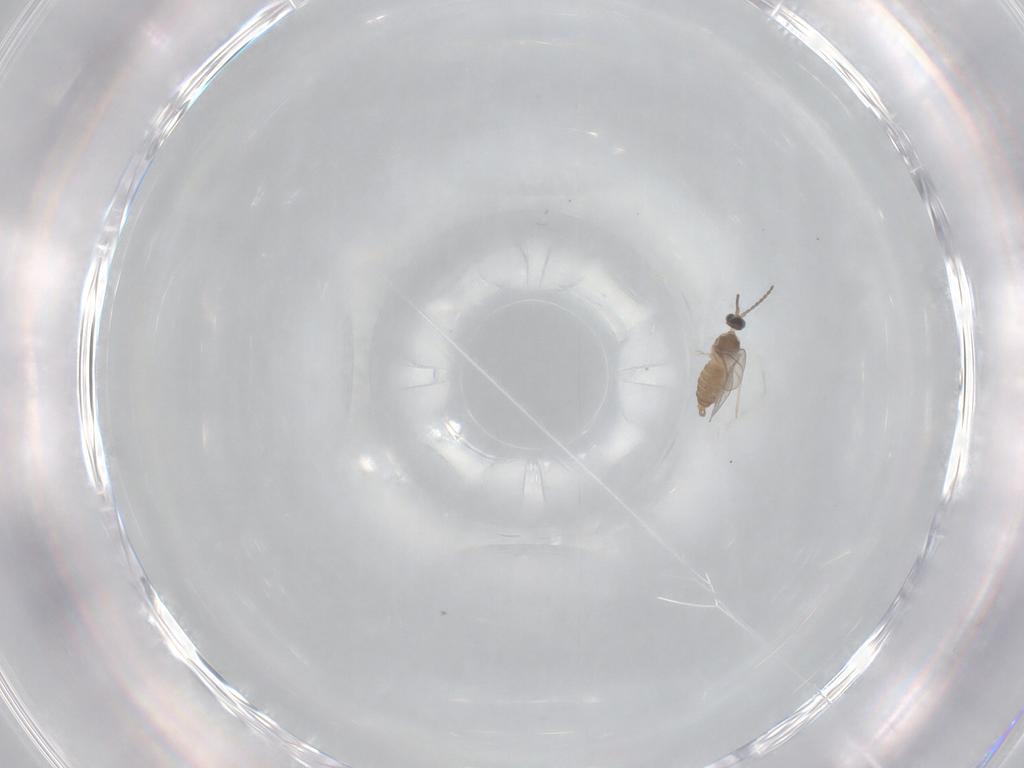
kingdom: Animalia
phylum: Arthropoda
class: Insecta
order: Diptera
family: Cecidomyiidae
